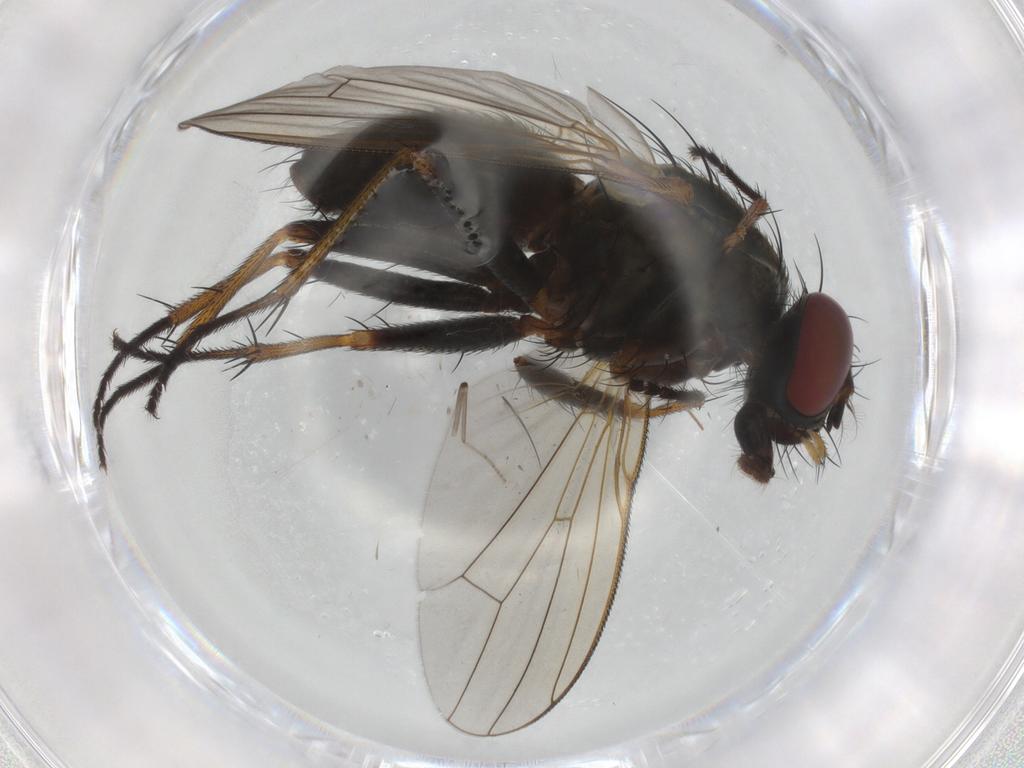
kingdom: Animalia
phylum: Arthropoda
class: Insecta
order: Diptera
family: Muscidae
